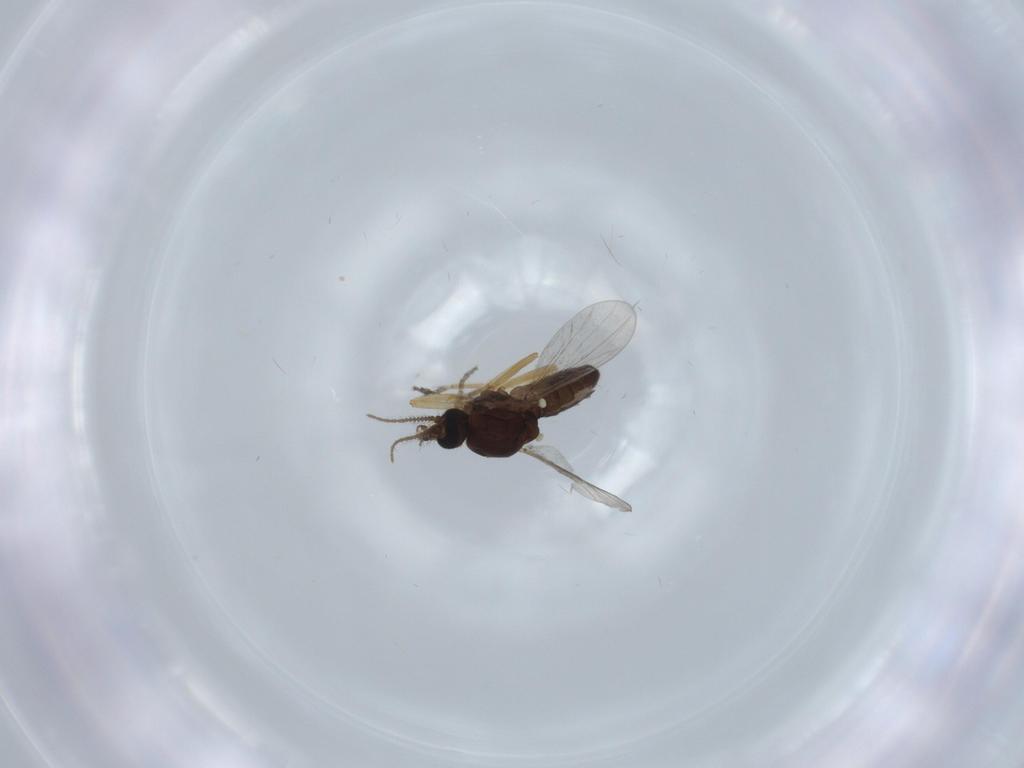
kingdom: Animalia
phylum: Arthropoda
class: Insecta
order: Diptera
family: Ceratopogonidae
